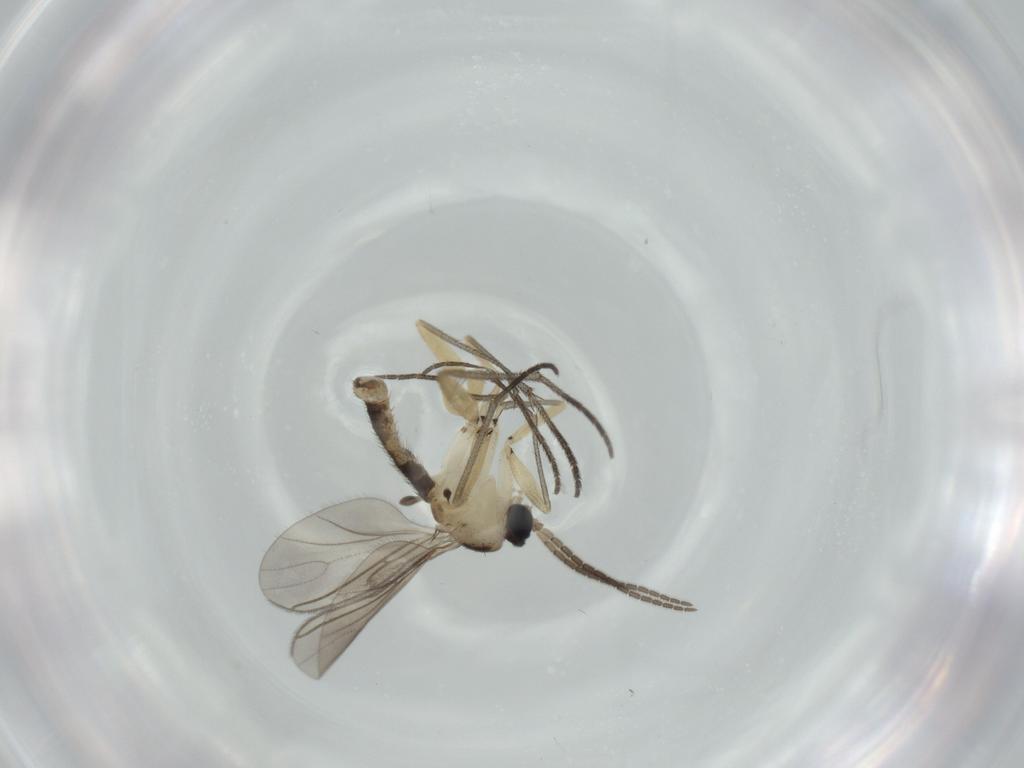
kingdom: Animalia
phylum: Arthropoda
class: Insecta
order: Diptera
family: Sciaridae
